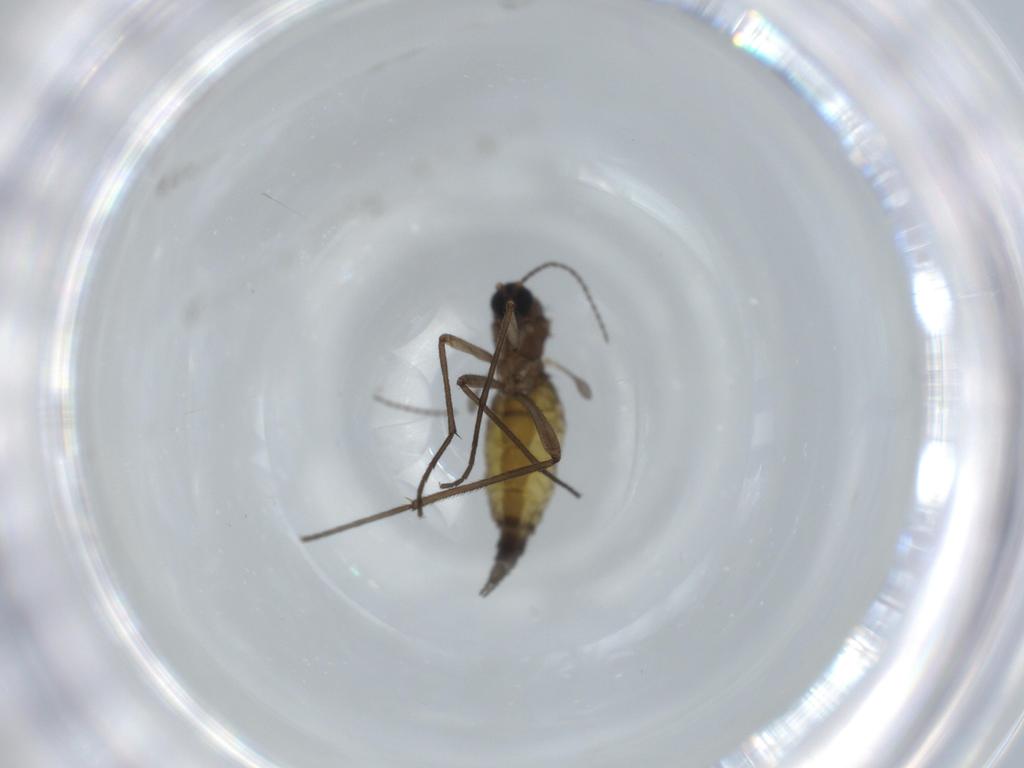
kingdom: Animalia
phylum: Arthropoda
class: Insecta
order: Diptera
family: Sciaridae
